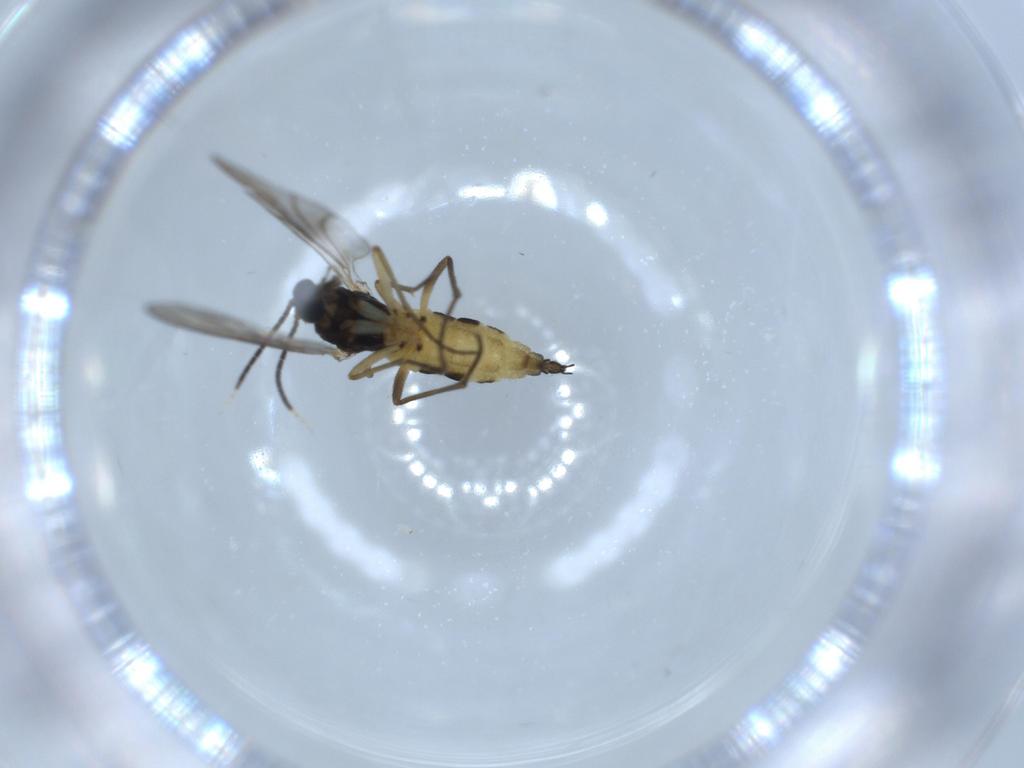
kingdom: Animalia
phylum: Arthropoda
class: Insecta
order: Diptera
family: Sciaridae
